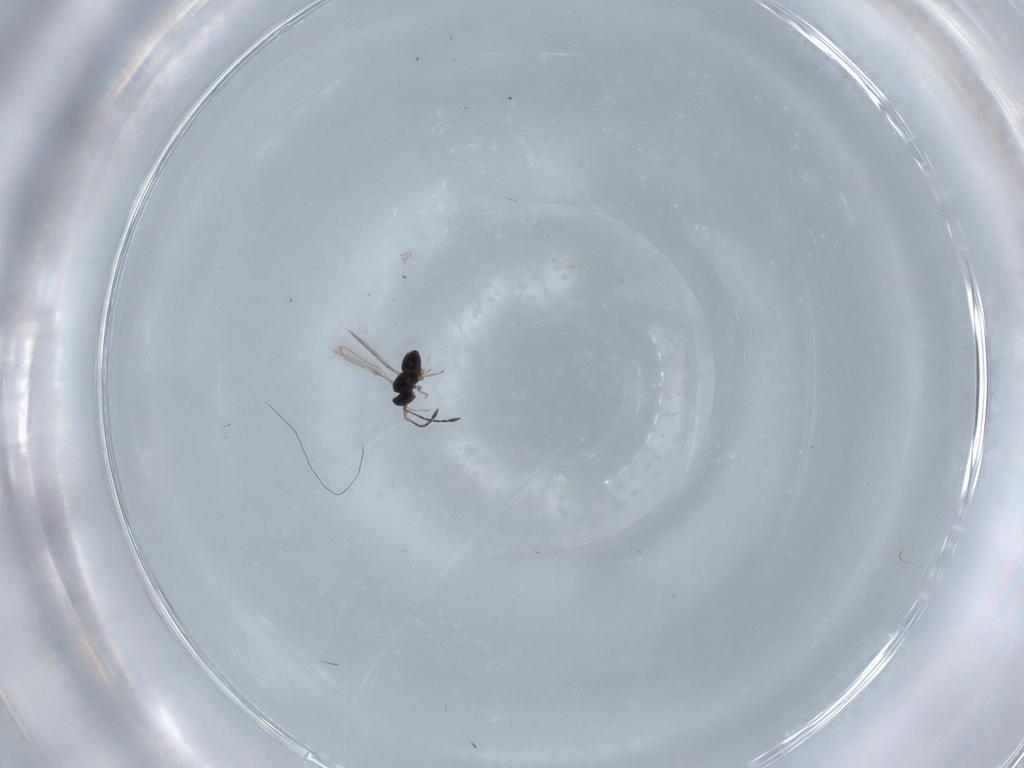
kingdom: Animalia
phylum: Arthropoda
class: Insecta
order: Hymenoptera
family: Mymaridae
